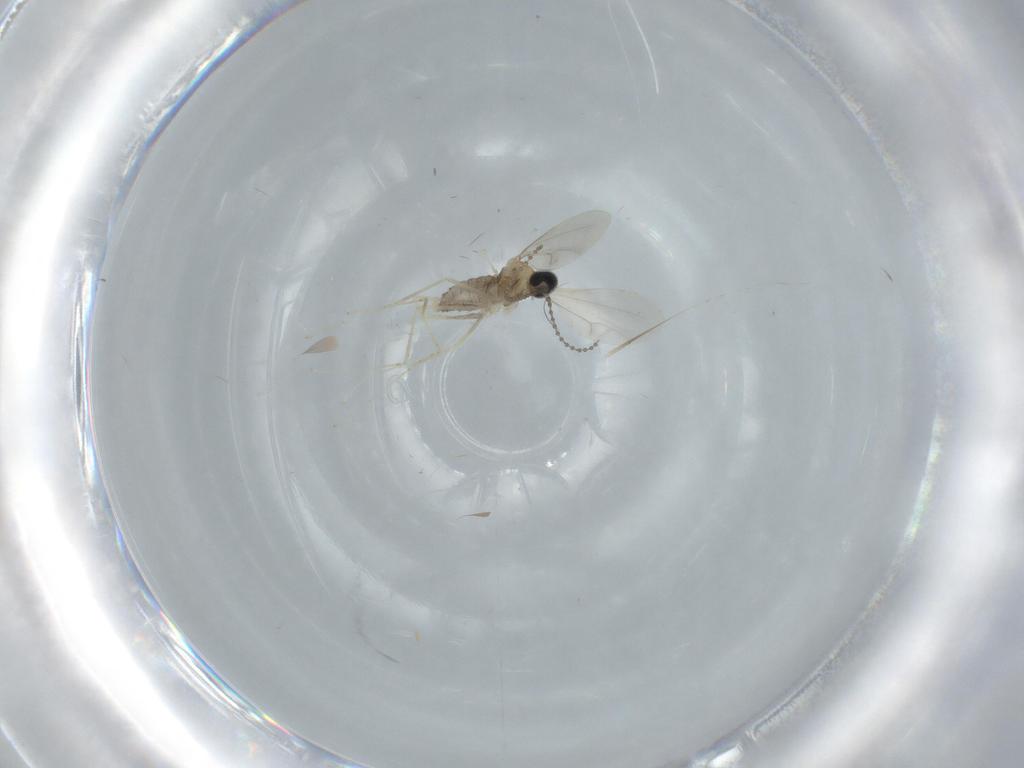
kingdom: Animalia
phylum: Arthropoda
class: Insecta
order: Diptera
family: Cecidomyiidae
